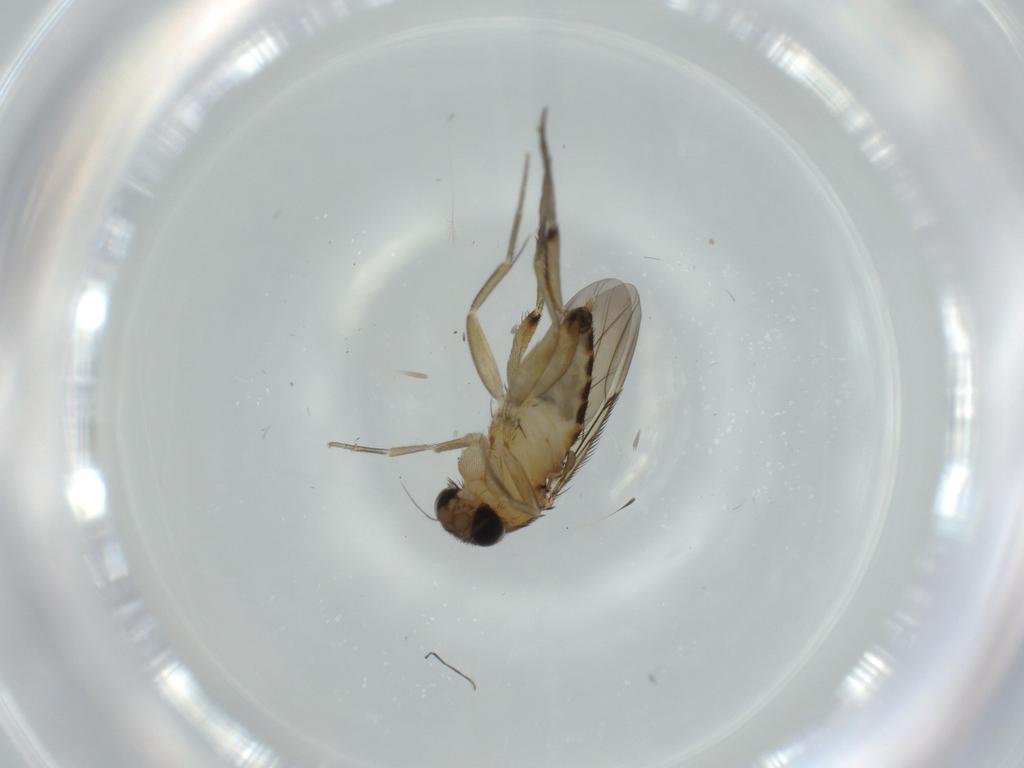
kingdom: Animalia
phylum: Arthropoda
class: Insecta
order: Diptera
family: Phoridae
